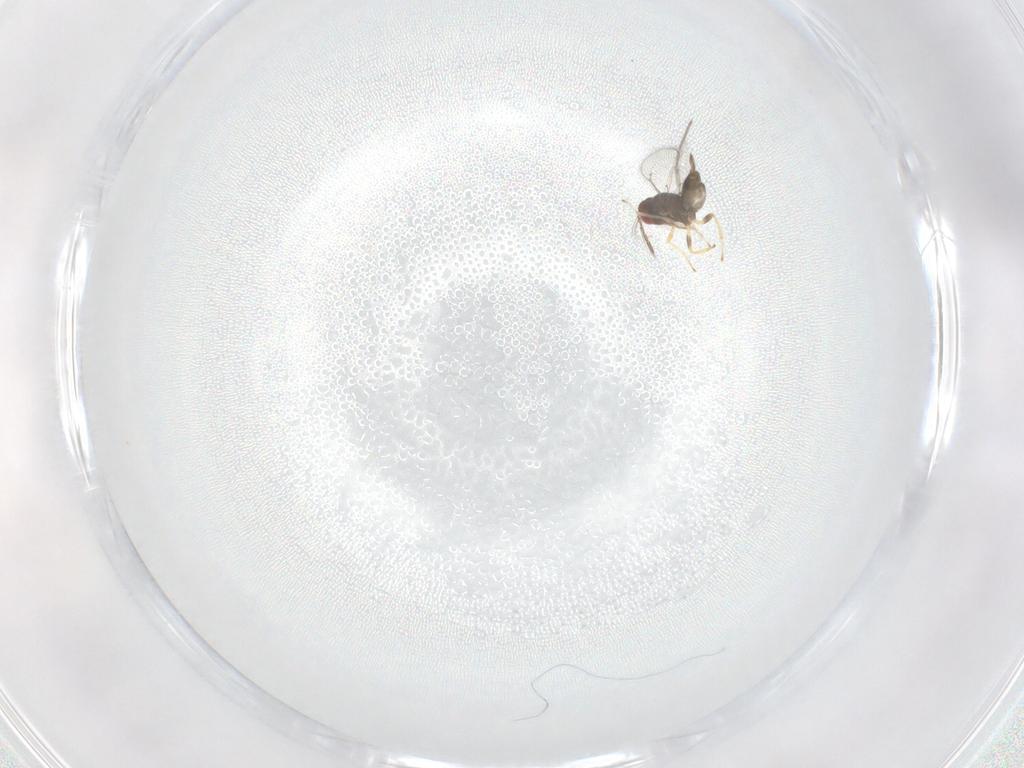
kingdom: Animalia
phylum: Arthropoda
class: Insecta
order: Hymenoptera
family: Eulophidae
